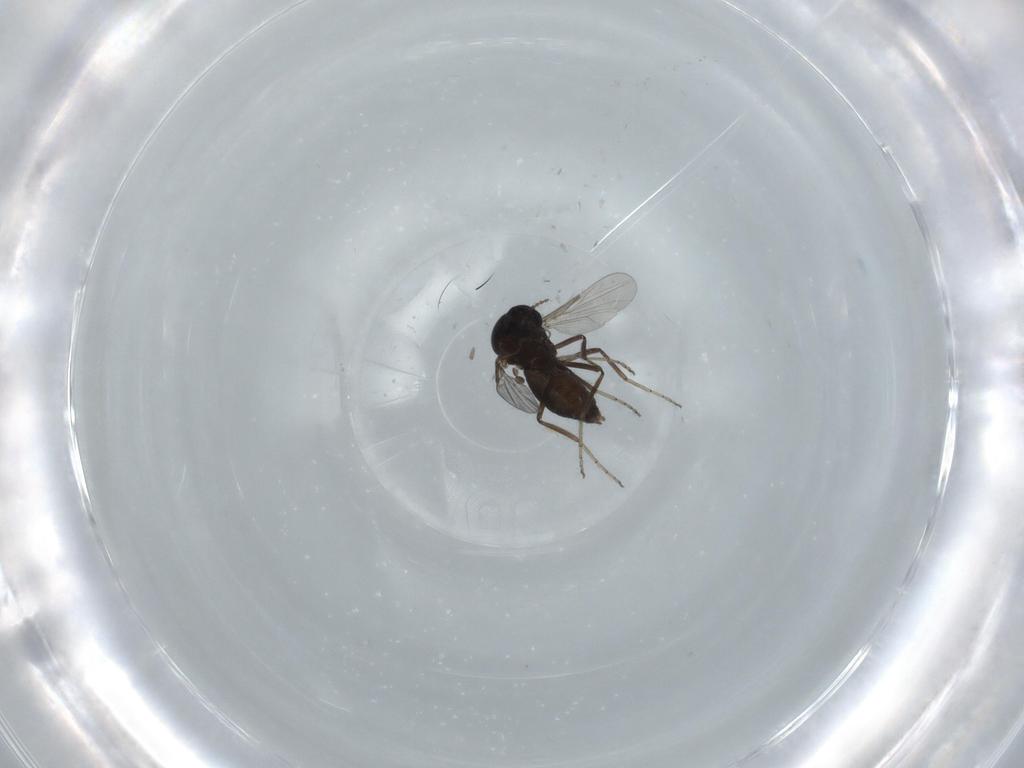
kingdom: Animalia
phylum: Arthropoda
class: Insecta
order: Diptera
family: Ceratopogonidae
